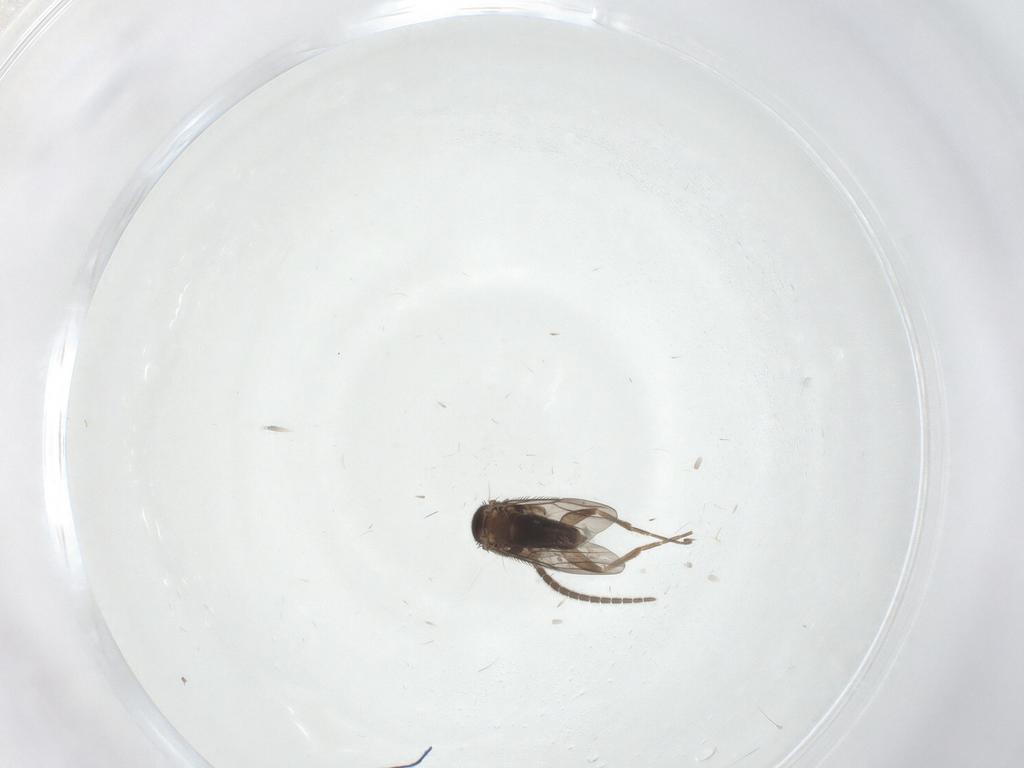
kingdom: Animalia
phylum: Arthropoda
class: Insecta
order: Diptera
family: Sciaridae
